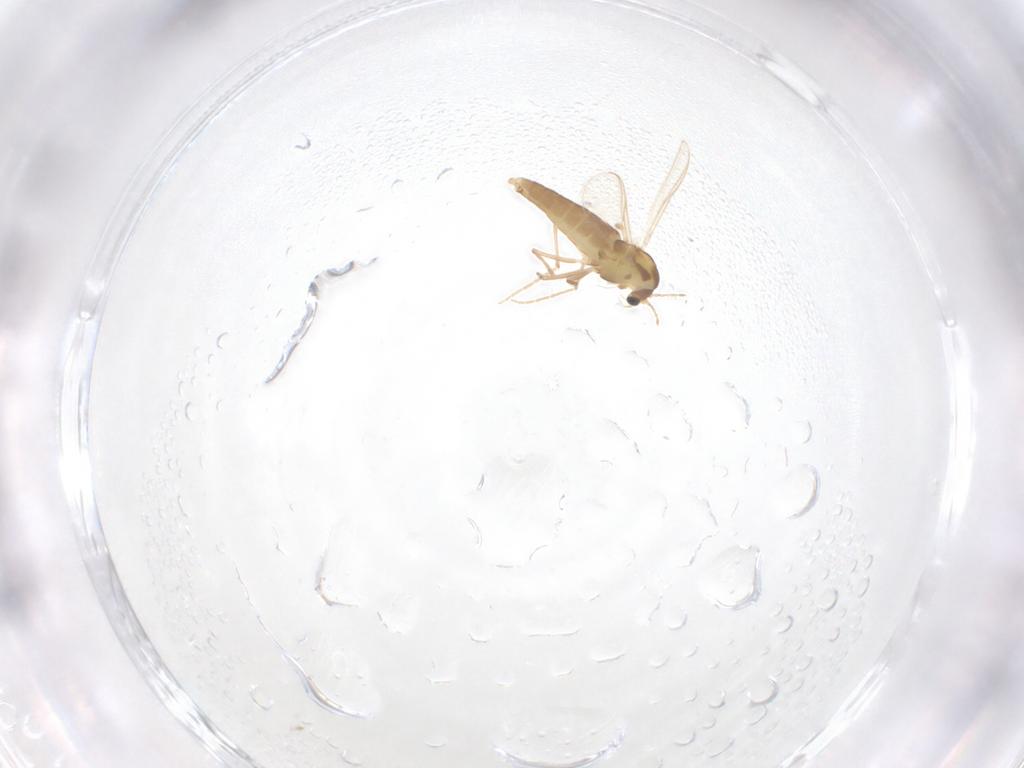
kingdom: Animalia
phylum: Arthropoda
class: Insecta
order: Diptera
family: Chironomidae
